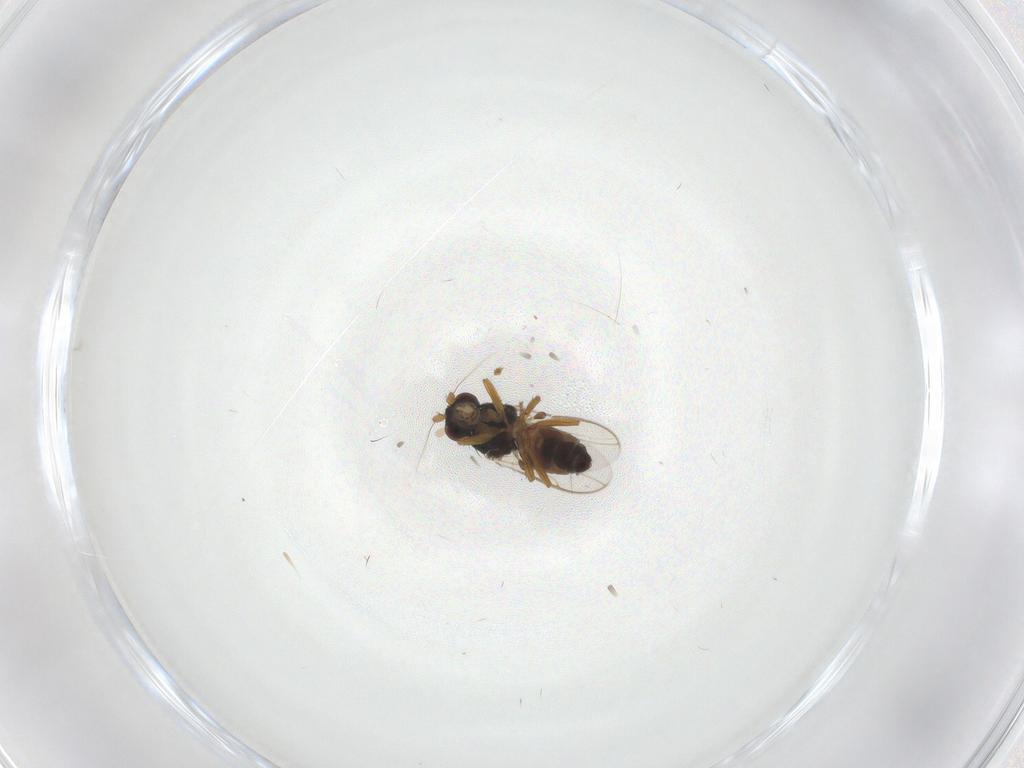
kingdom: Animalia
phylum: Arthropoda
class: Insecta
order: Diptera
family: Sphaeroceridae
